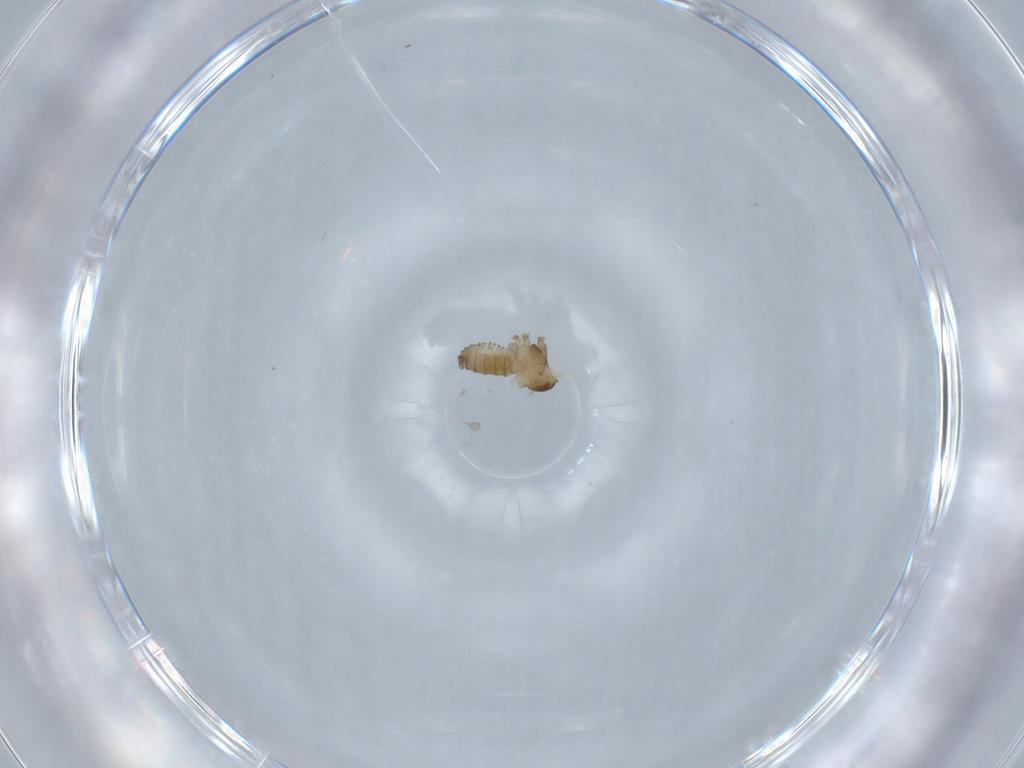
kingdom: Animalia
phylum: Arthropoda
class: Insecta
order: Diptera
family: Cecidomyiidae
